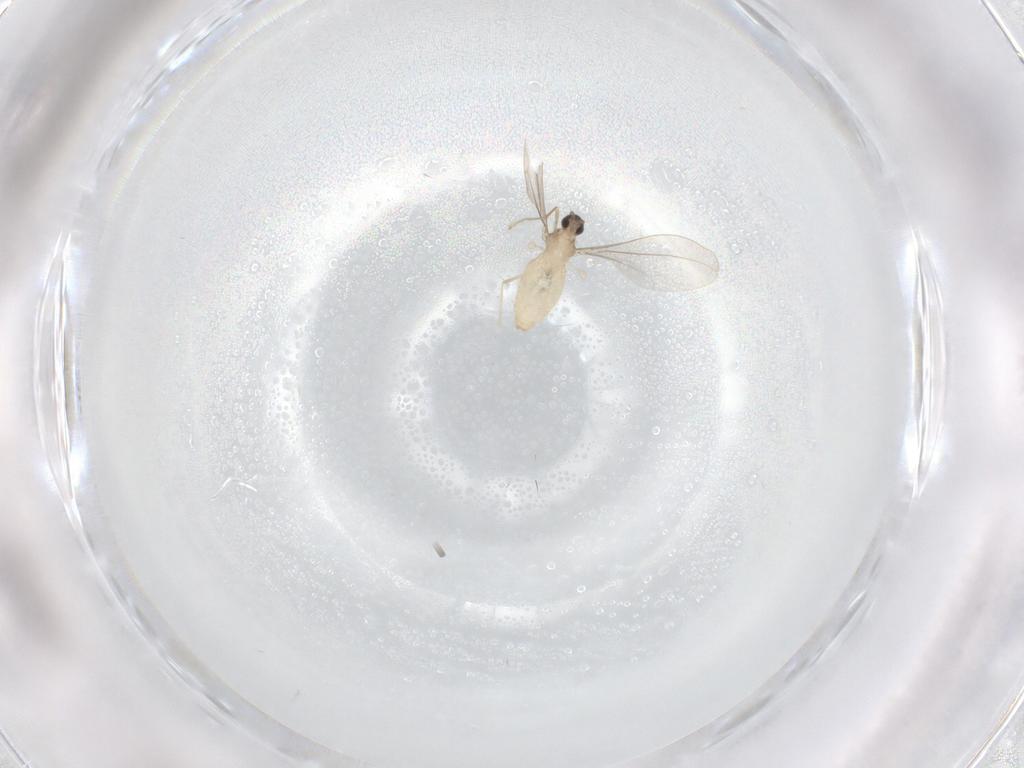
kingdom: Animalia
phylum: Arthropoda
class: Insecta
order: Diptera
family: Cecidomyiidae
